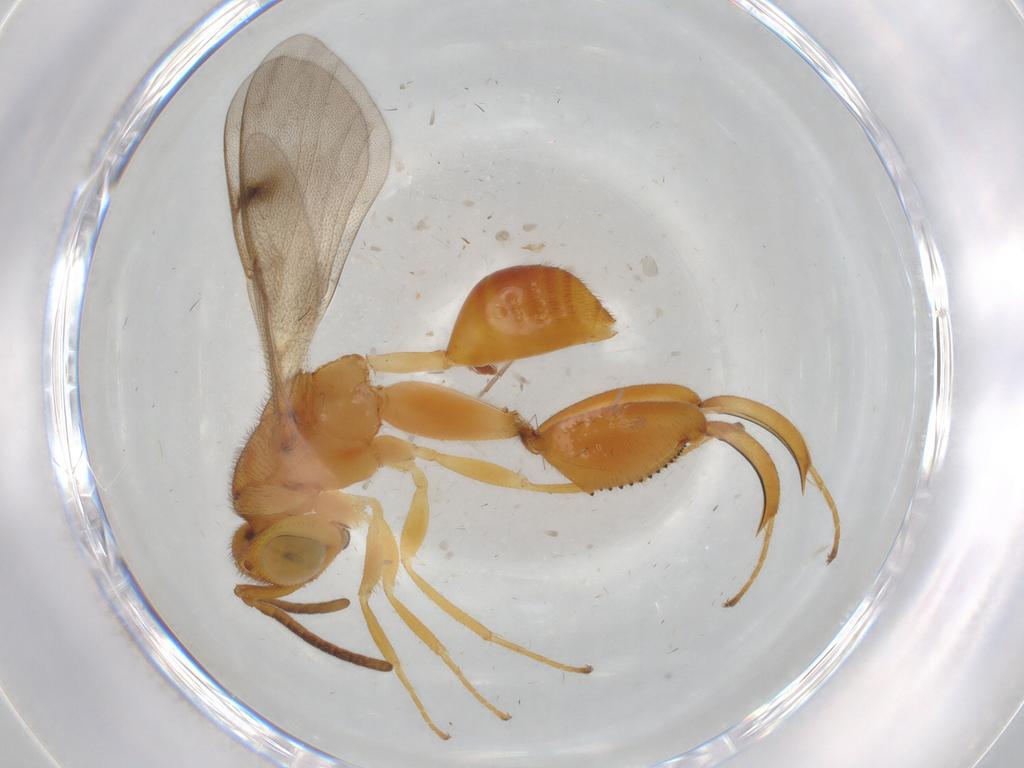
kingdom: Animalia
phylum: Arthropoda
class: Insecta
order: Hymenoptera
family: Chalcididae
